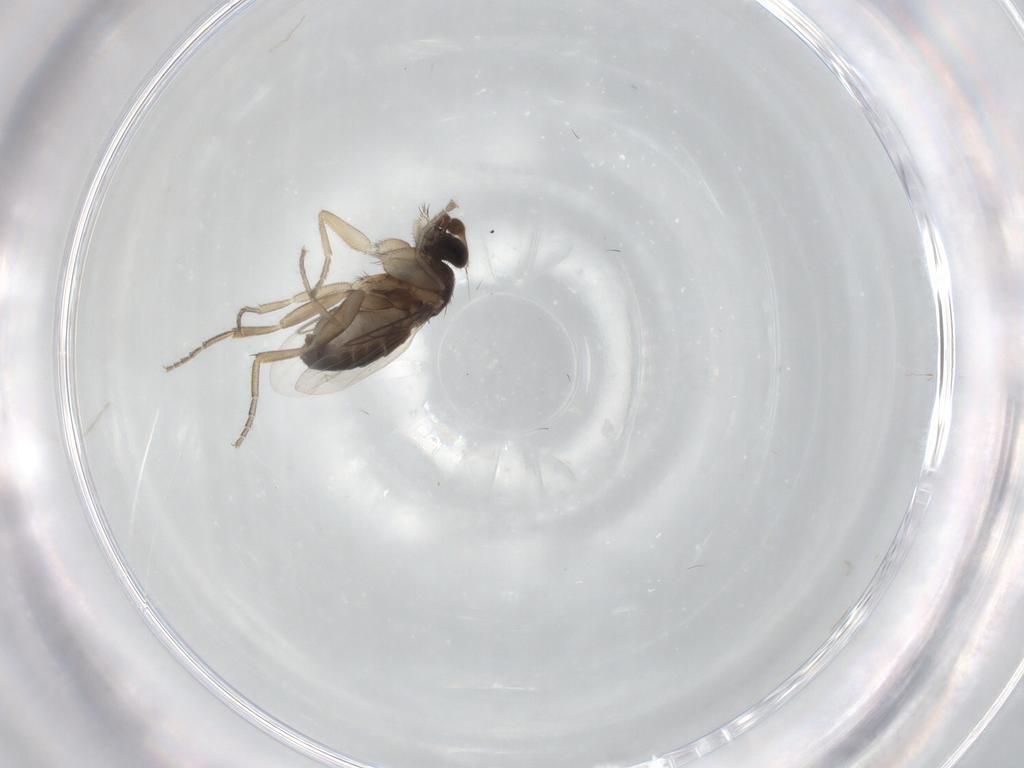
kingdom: Animalia
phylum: Arthropoda
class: Insecta
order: Diptera
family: Phoridae
